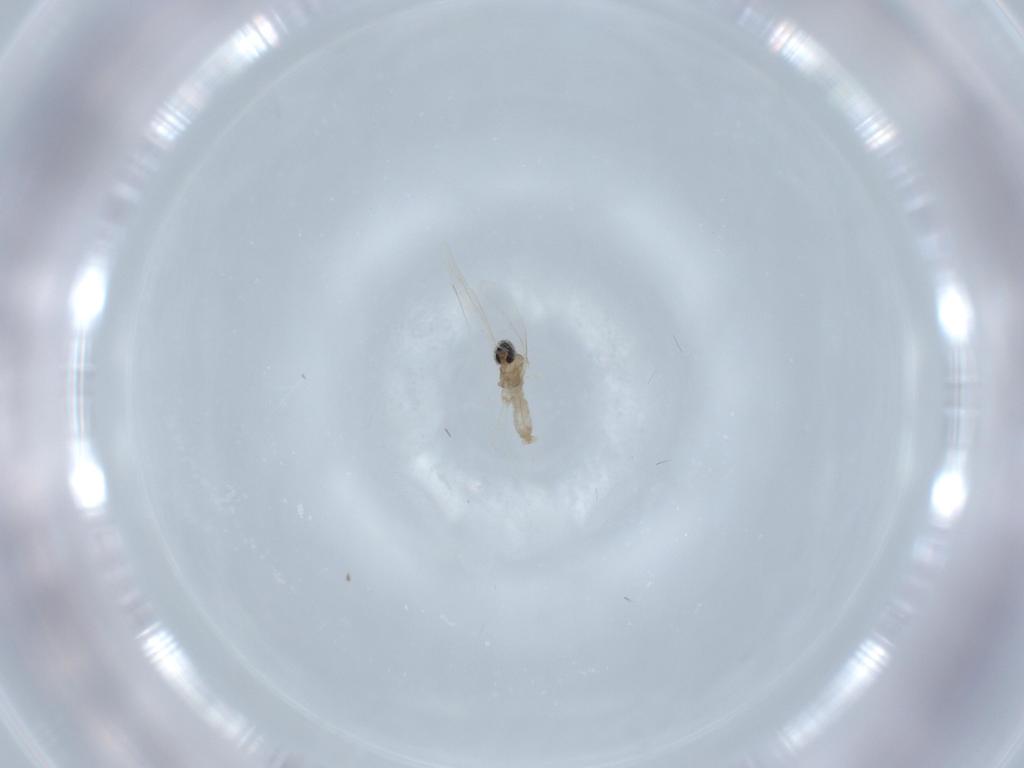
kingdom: Animalia
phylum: Arthropoda
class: Insecta
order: Diptera
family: Cecidomyiidae
